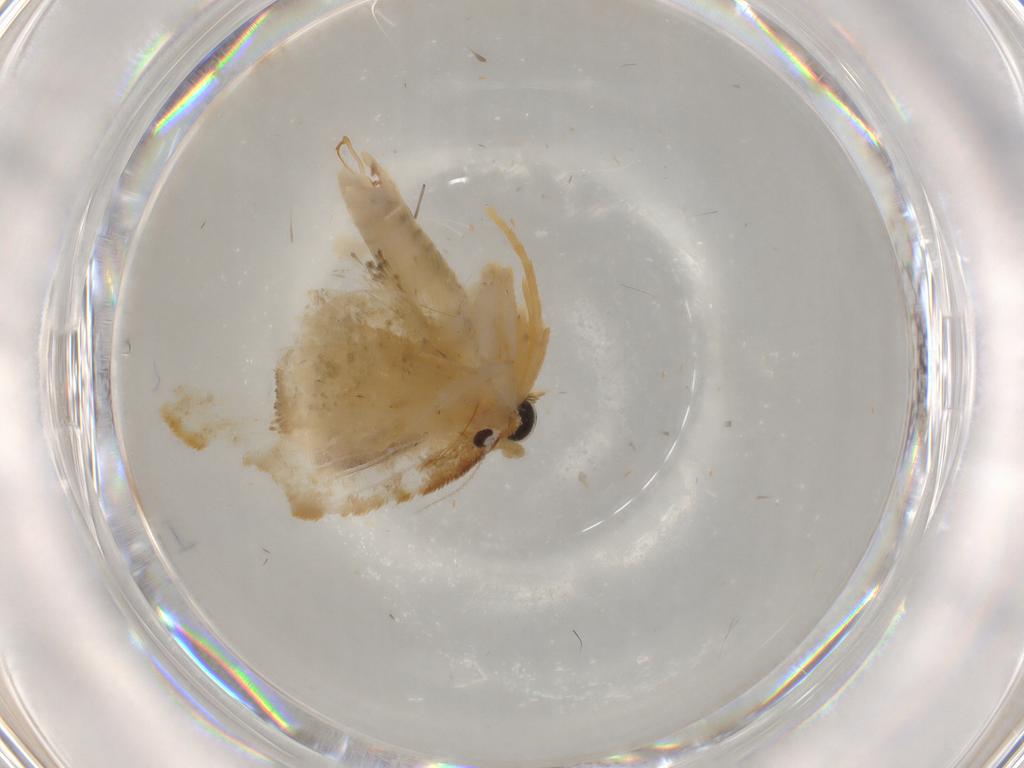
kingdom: Animalia
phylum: Arthropoda
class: Insecta
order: Lepidoptera
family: Psychidae
